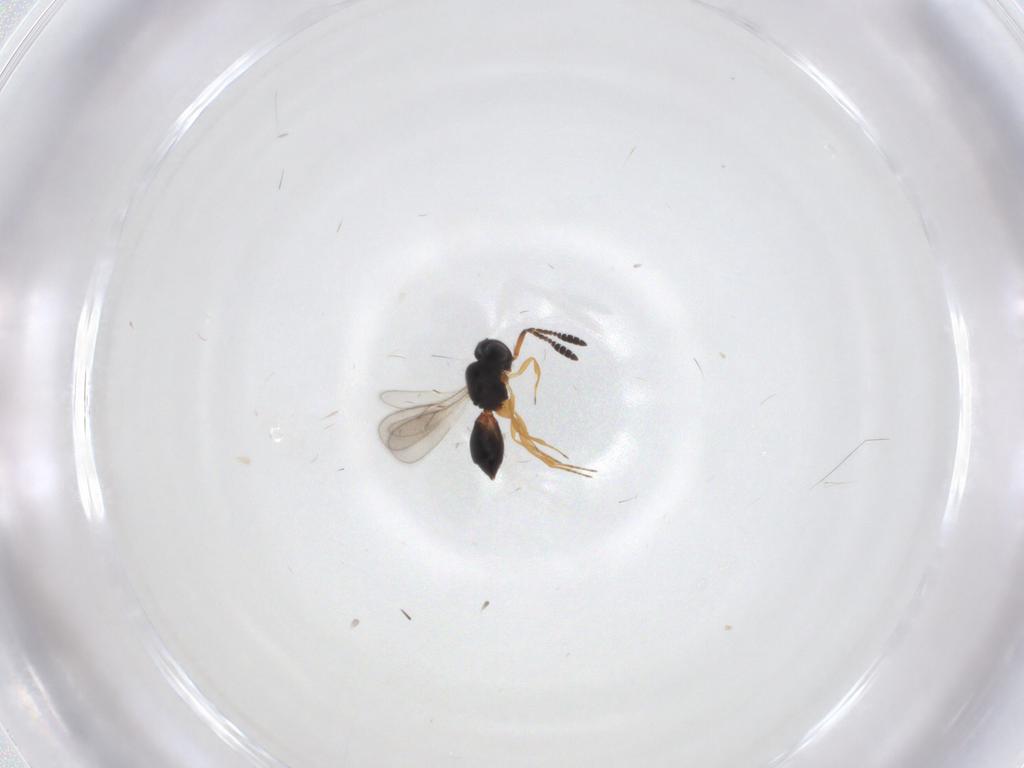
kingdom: Animalia
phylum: Arthropoda
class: Insecta
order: Hymenoptera
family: Scelionidae
